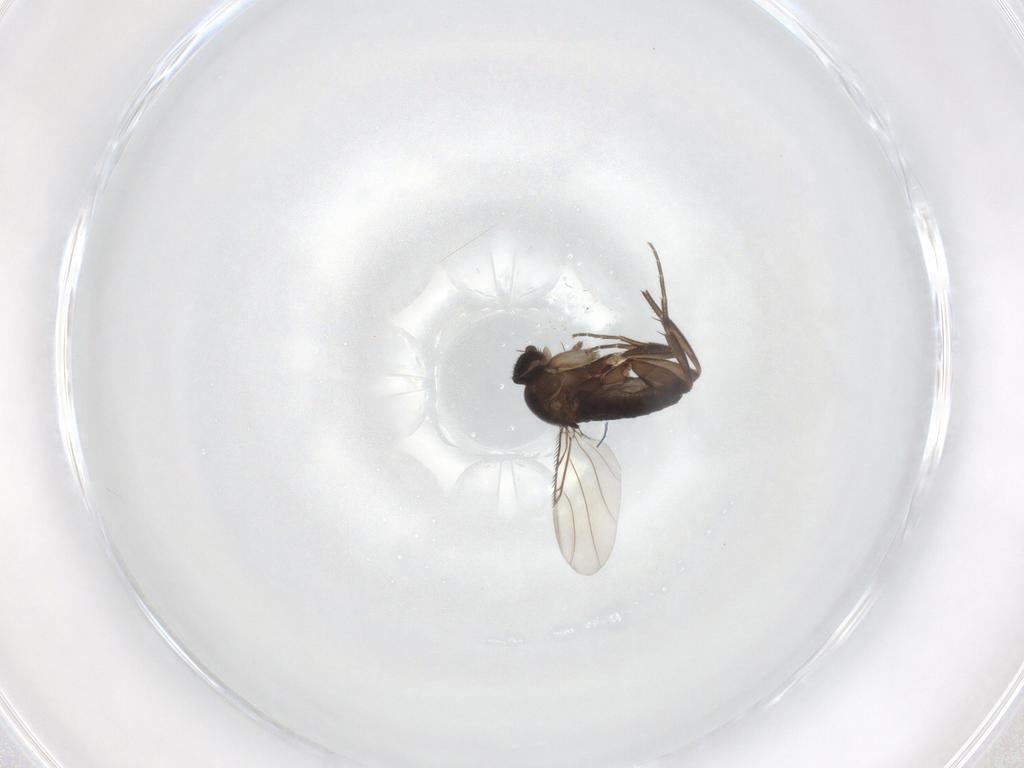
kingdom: Animalia
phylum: Arthropoda
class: Insecta
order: Diptera
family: Phoridae
